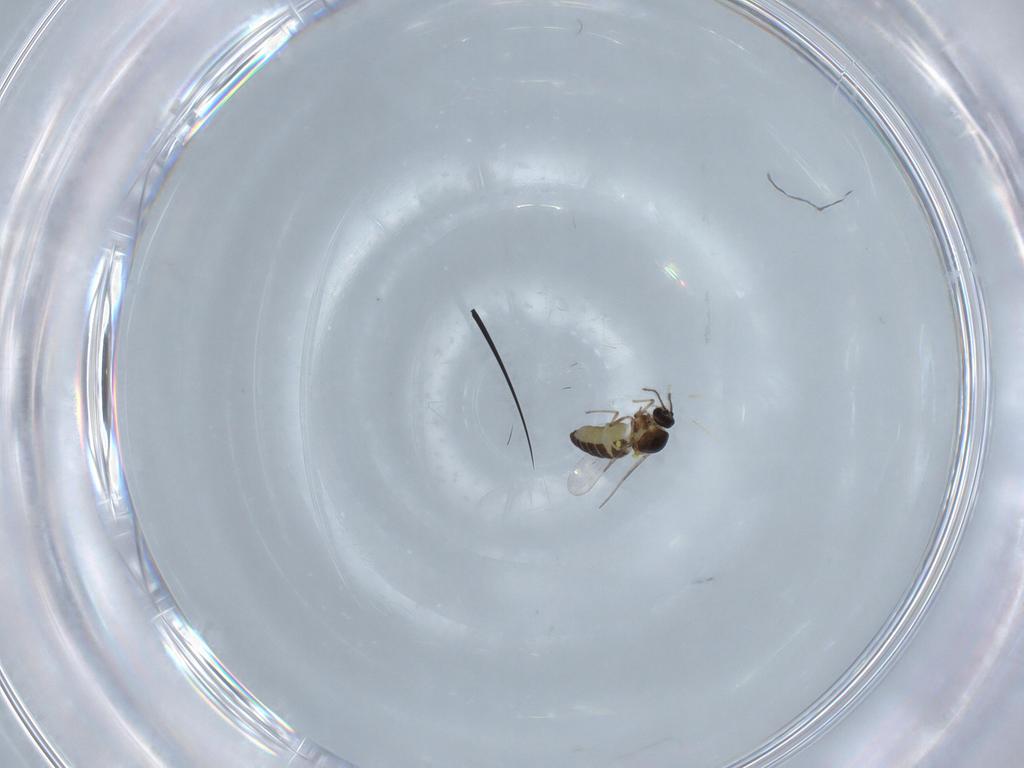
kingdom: Animalia
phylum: Arthropoda
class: Insecta
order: Diptera
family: Ceratopogonidae
